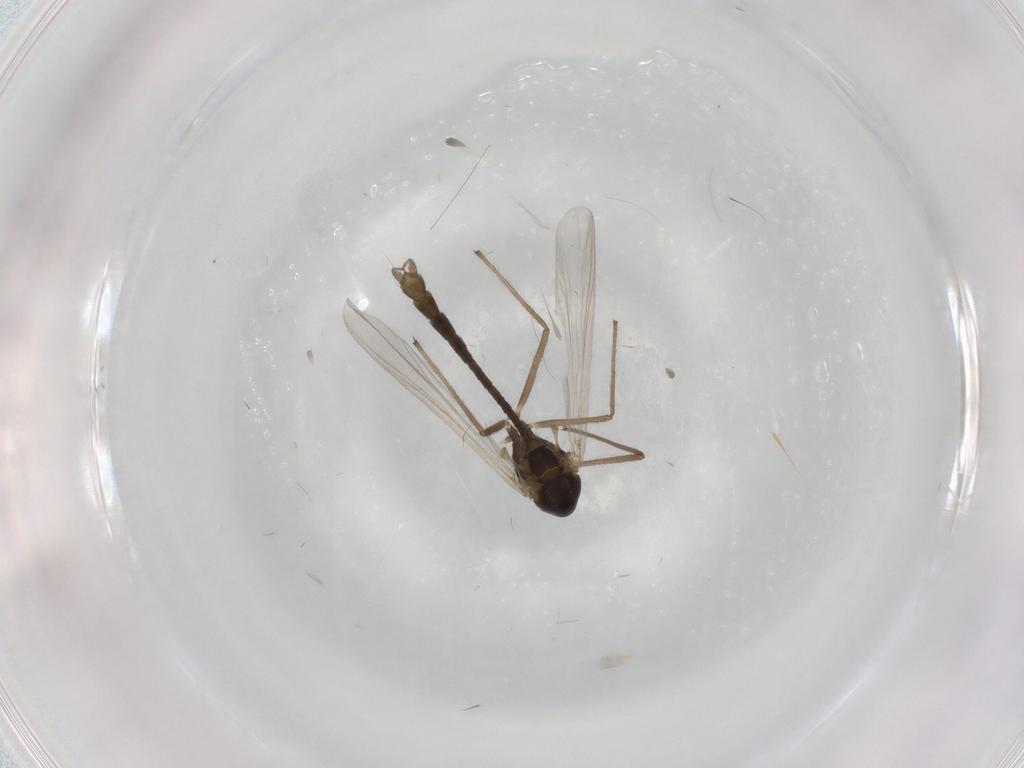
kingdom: Animalia
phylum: Arthropoda
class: Insecta
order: Diptera
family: Chironomidae
